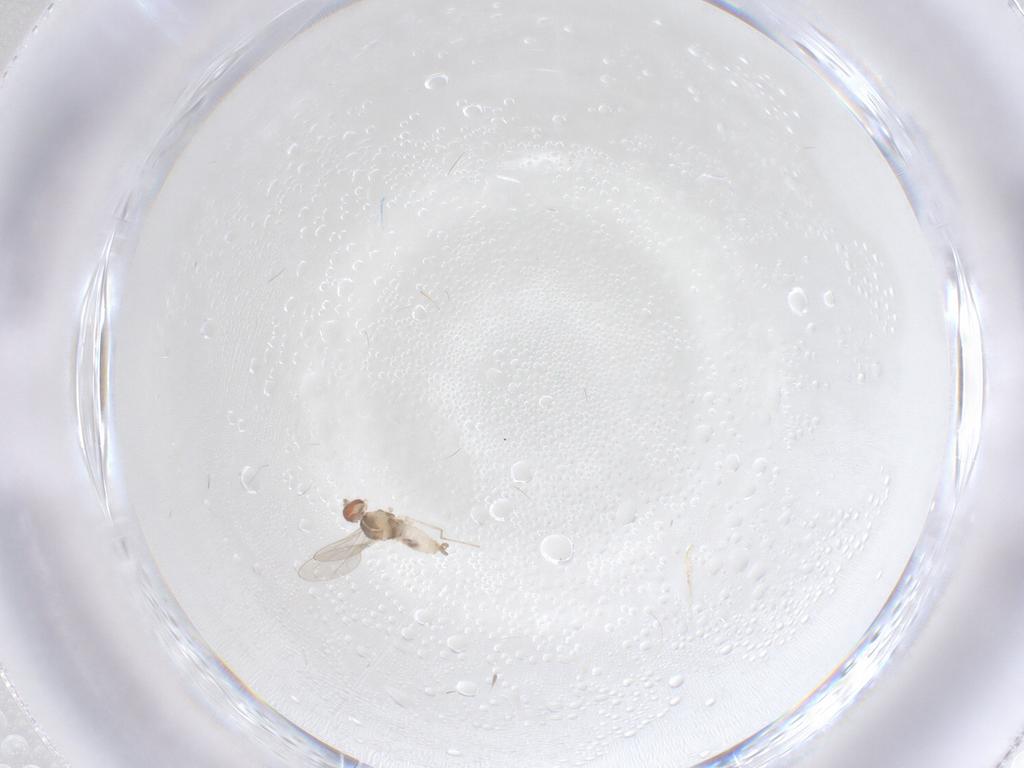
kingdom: Animalia
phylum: Arthropoda
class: Insecta
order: Diptera
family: Cecidomyiidae
